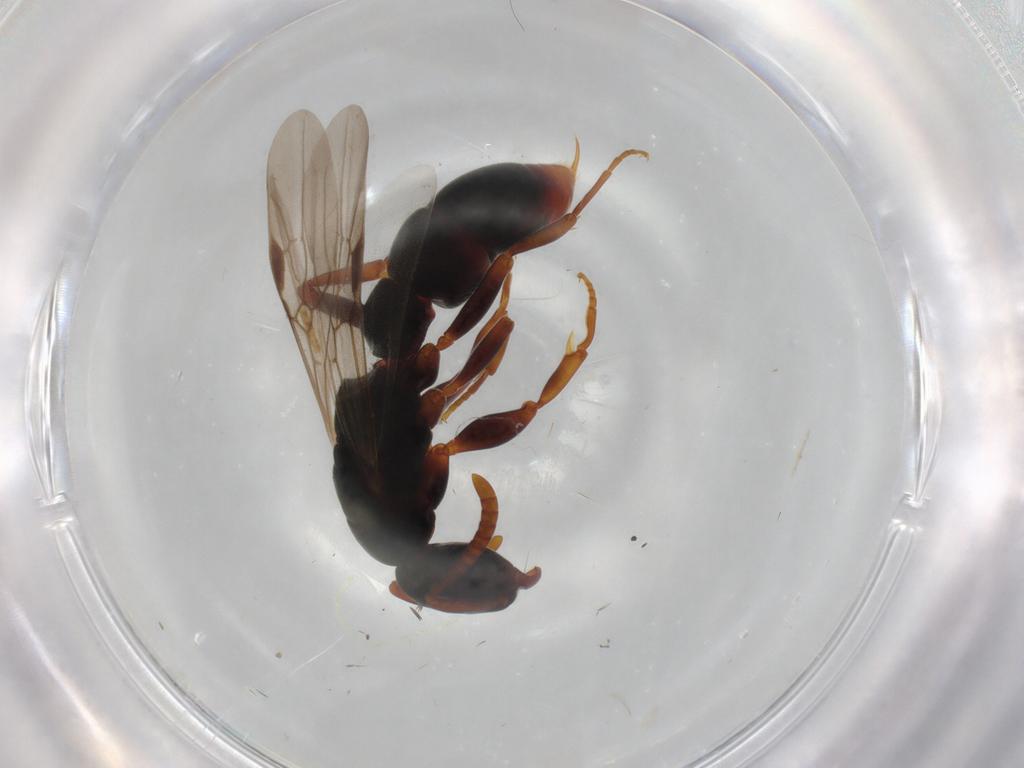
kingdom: Animalia
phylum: Arthropoda
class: Insecta
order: Hymenoptera
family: Formicidae
